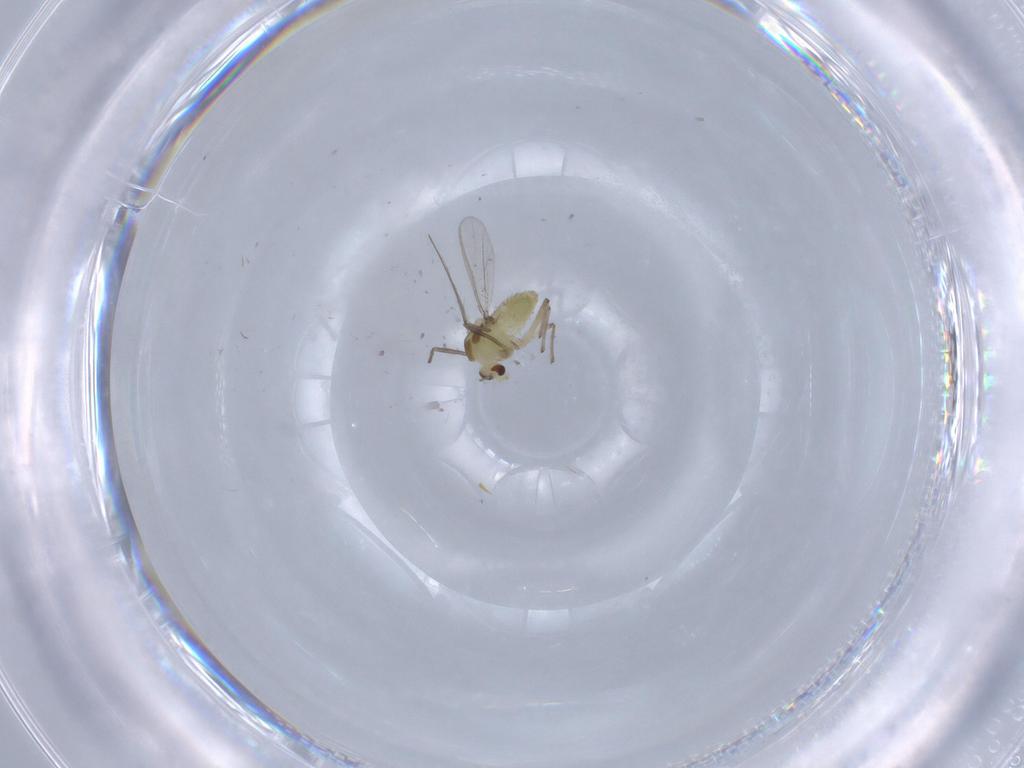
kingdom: Animalia
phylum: Arthropoda
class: Insecta
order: Diptera
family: Chironomidae
